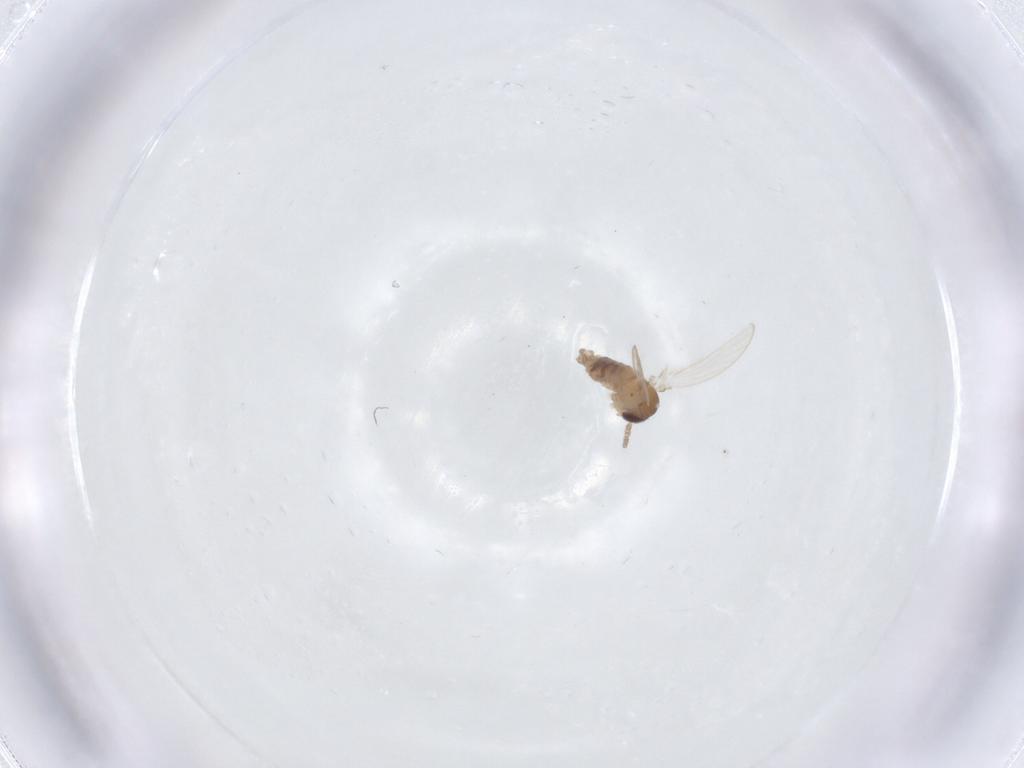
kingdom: Animalia
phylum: Arthropoda
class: Insecta
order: Diptera
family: Psychodidae
